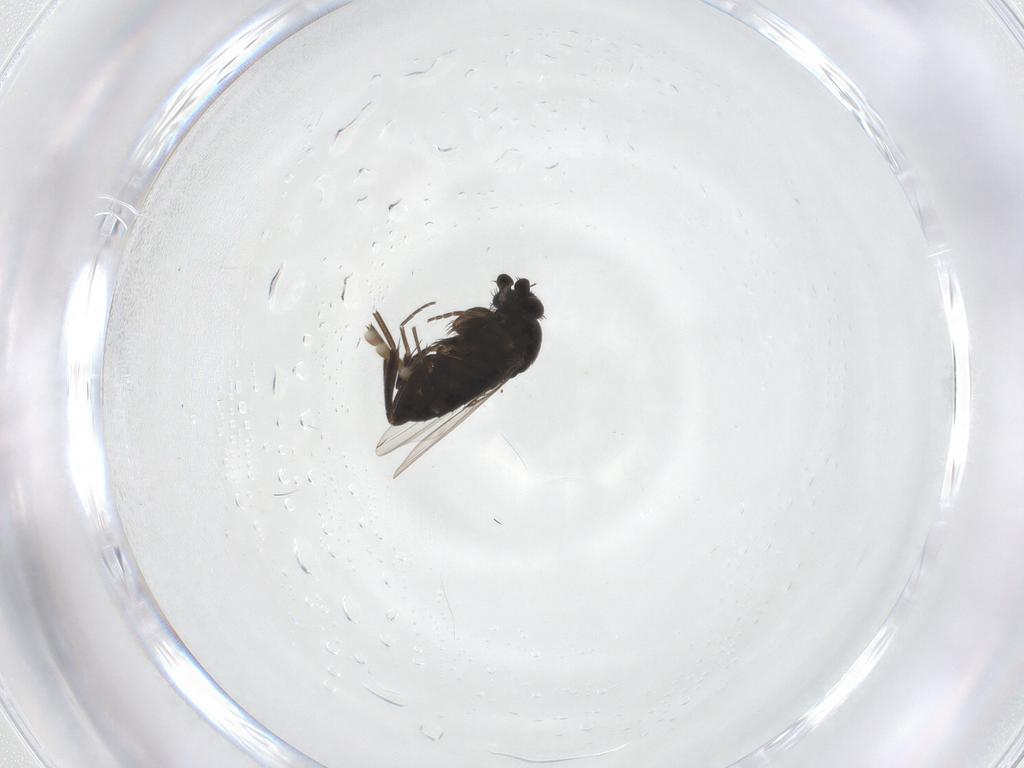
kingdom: Animalia
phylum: Arthropoda
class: Insecta
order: Diptera
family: Phoridae
